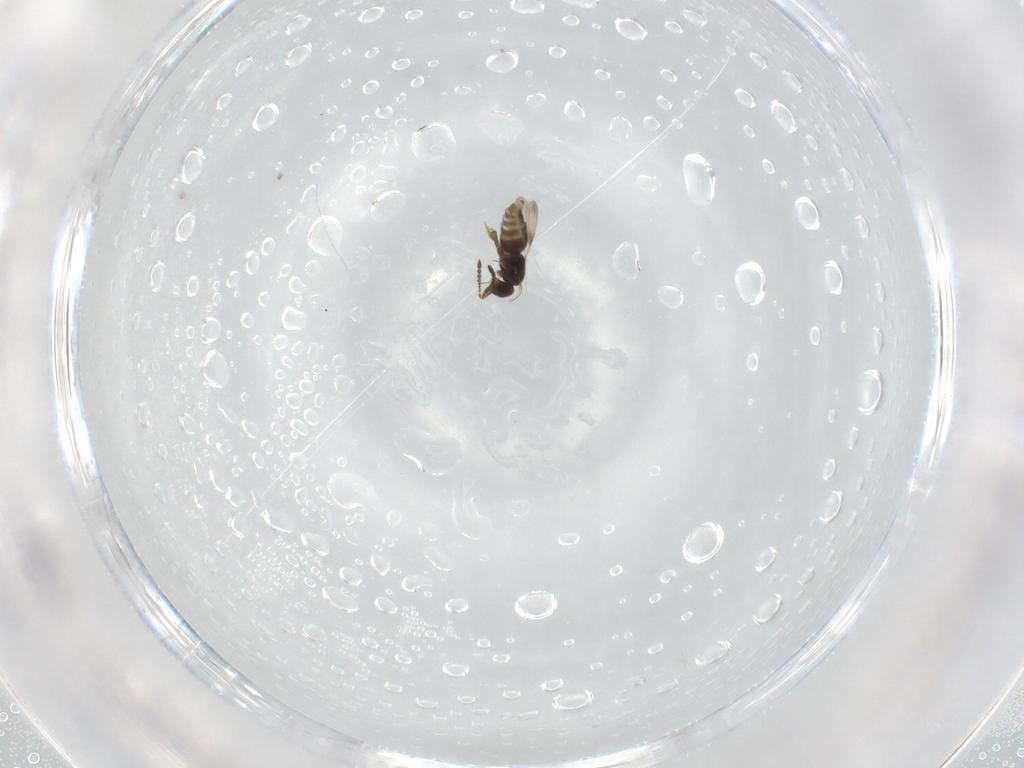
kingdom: Animalia
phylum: Arthropoda
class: Insecta
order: Hymenoptera
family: Ceraphronidae
